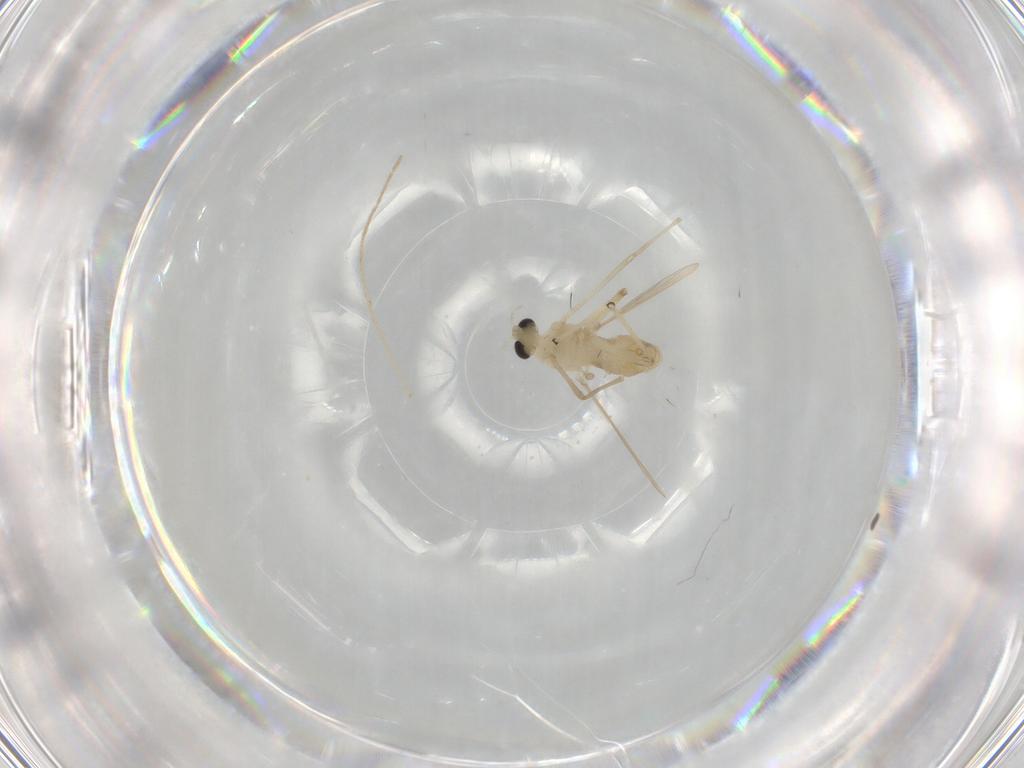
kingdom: Animalia
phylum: Arthropoda
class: Insecta
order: Diptera
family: Chironomidae
